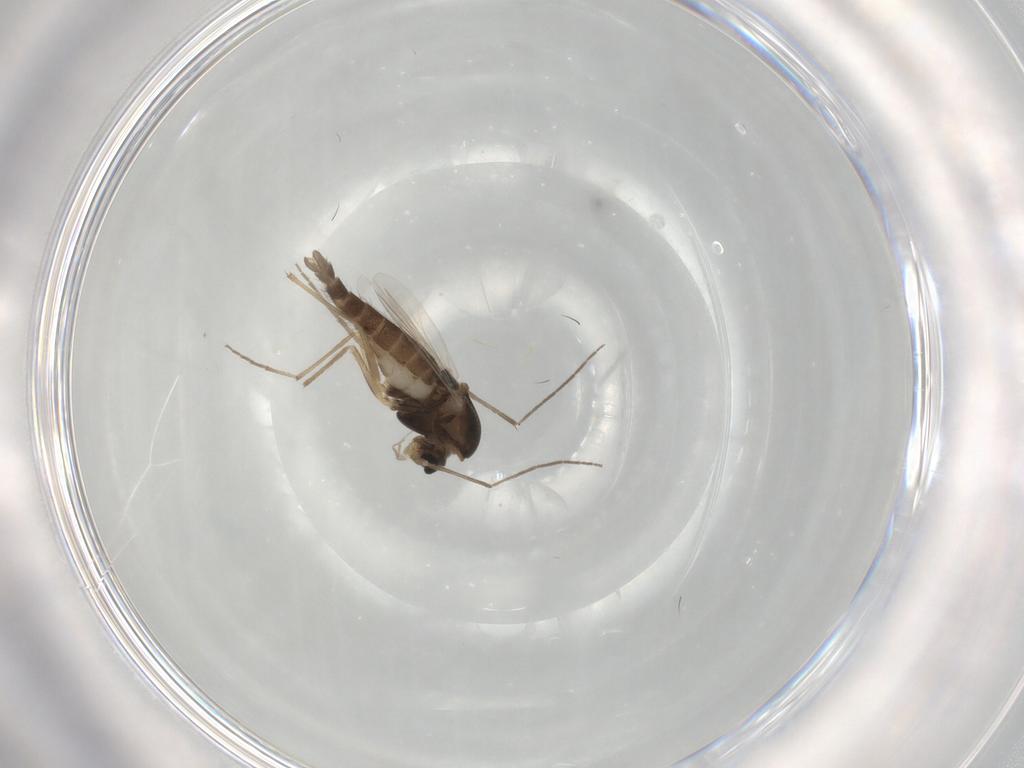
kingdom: Animalia
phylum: Arthropoda
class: Insecta
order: Diptera
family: Chironomidae
